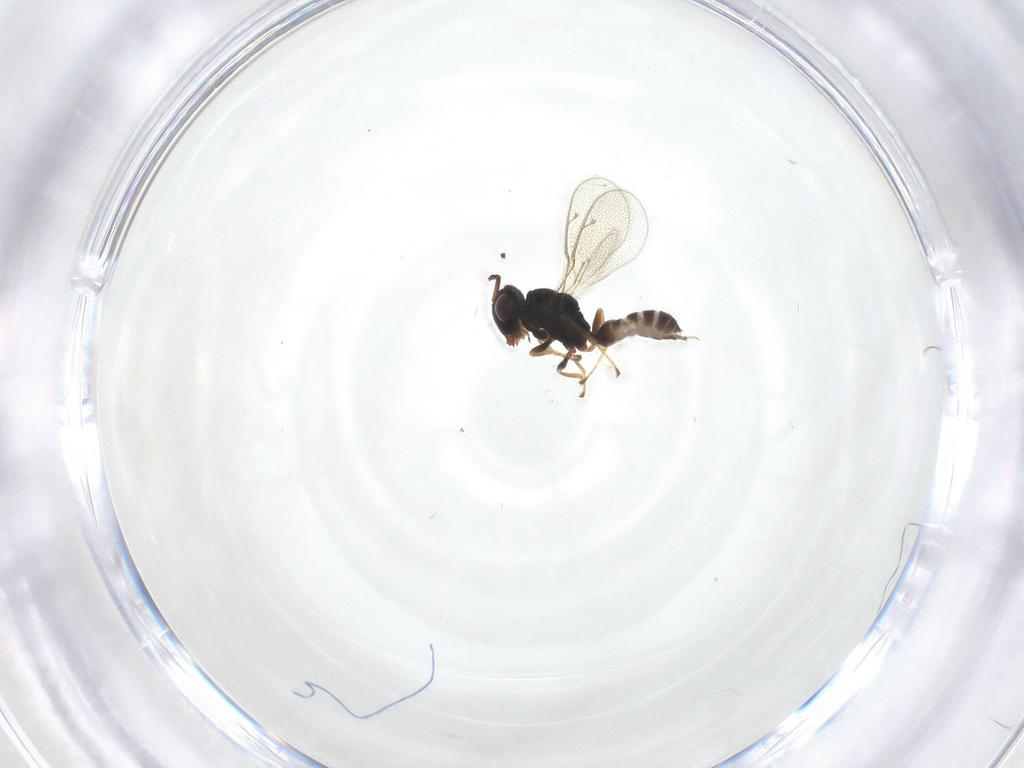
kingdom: Animalia
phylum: Arthropoda
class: Insecta
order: Hymenoptera
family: Pteromalidae
